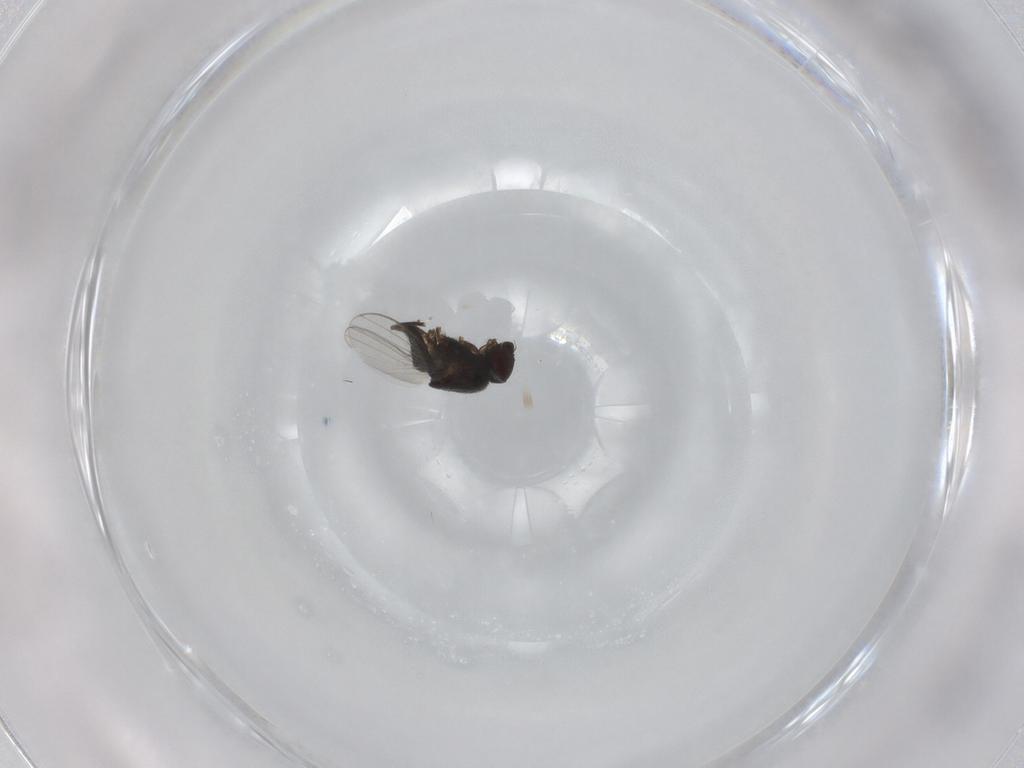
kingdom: Animalia
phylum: Arthropoda
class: Insecta
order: Diptera
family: Milichiidae
